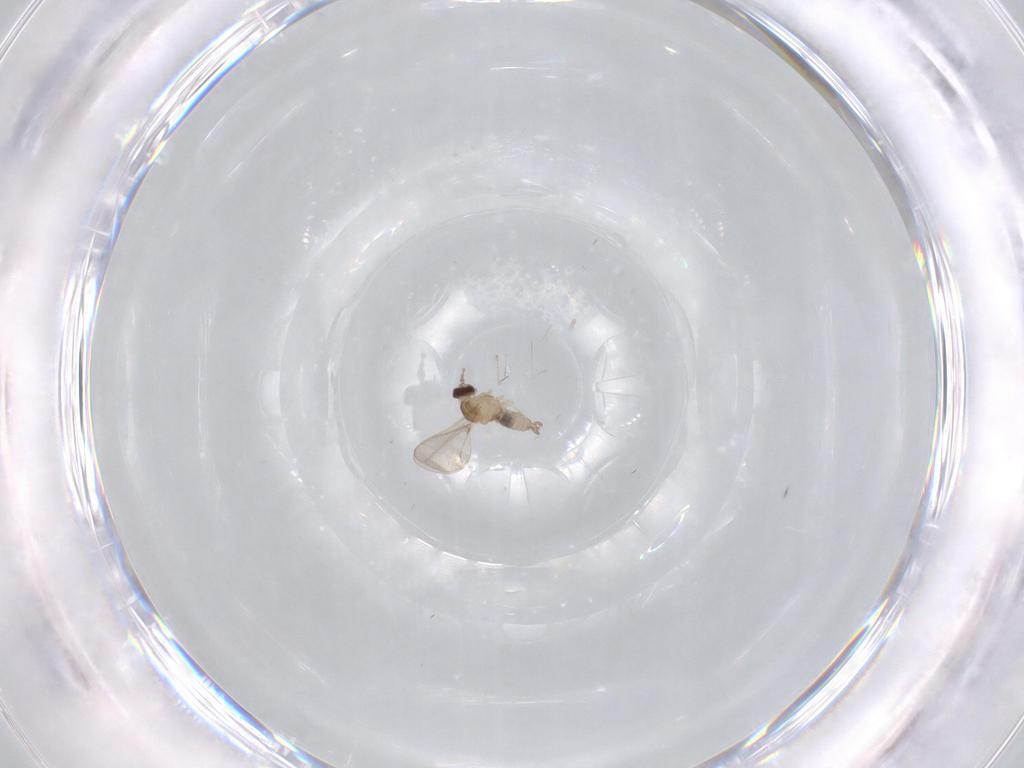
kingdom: Animalia
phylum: Arthropoda
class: Insecta
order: Diptera
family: Cecidomyiidae
